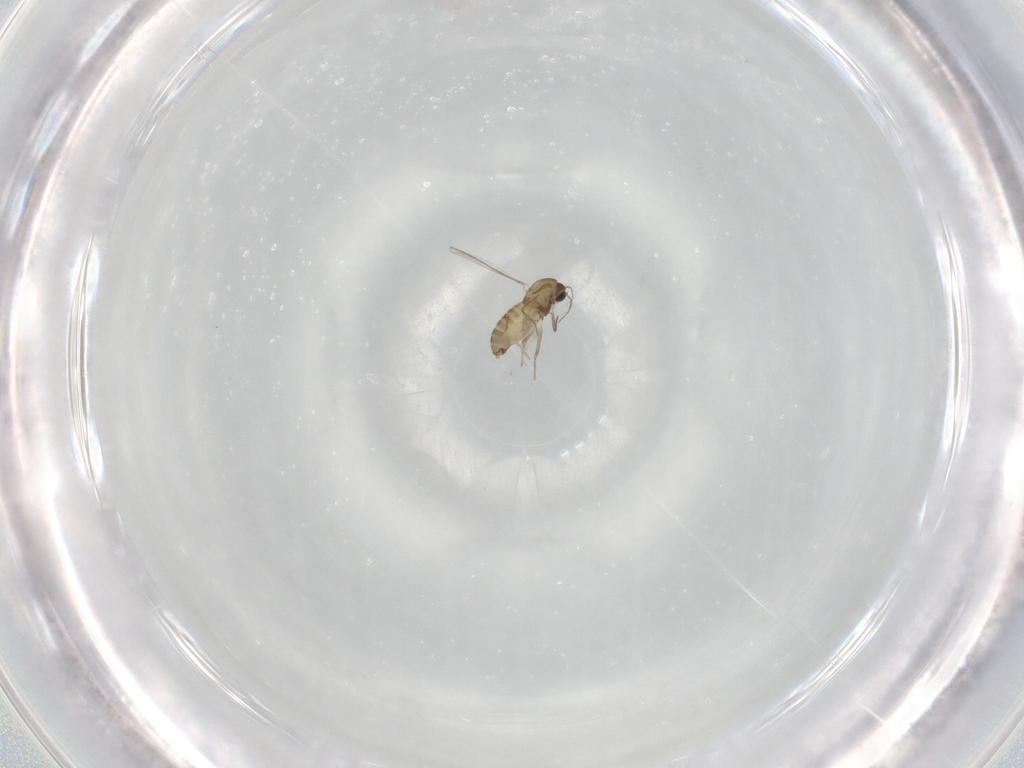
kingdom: Animalia
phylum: Arthropoda
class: Insecta
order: Diptera
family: Chironomidae
